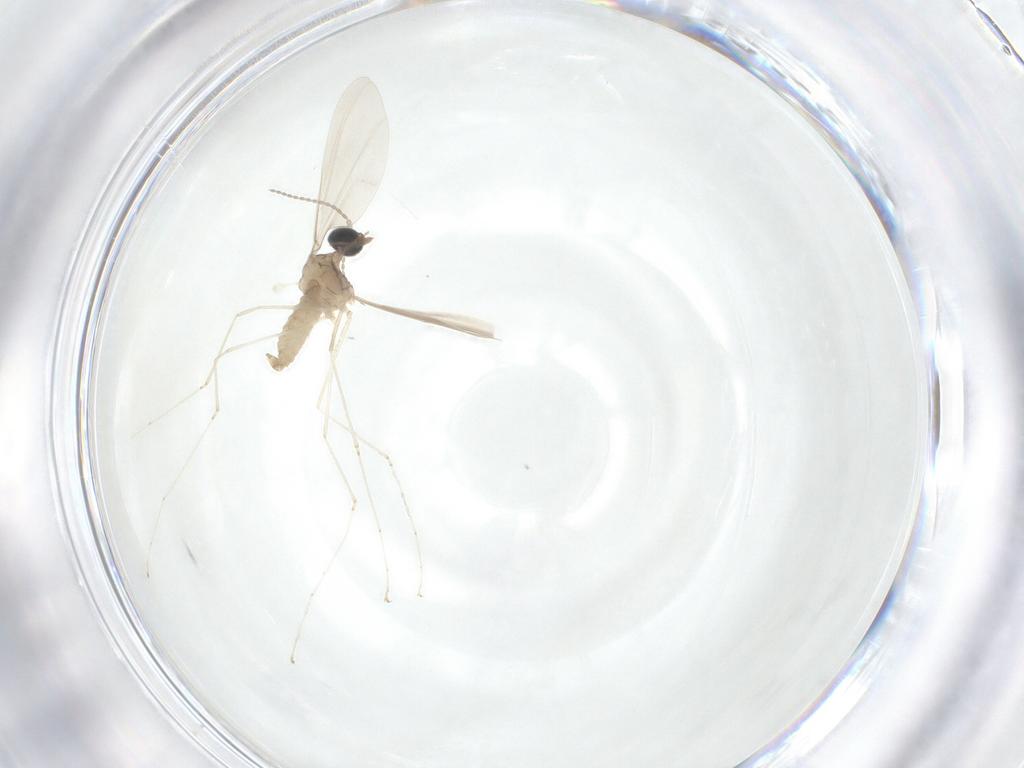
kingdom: Animalia
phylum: Arthropoda
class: Insecta
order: Diptera
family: Cecidomyiidae
